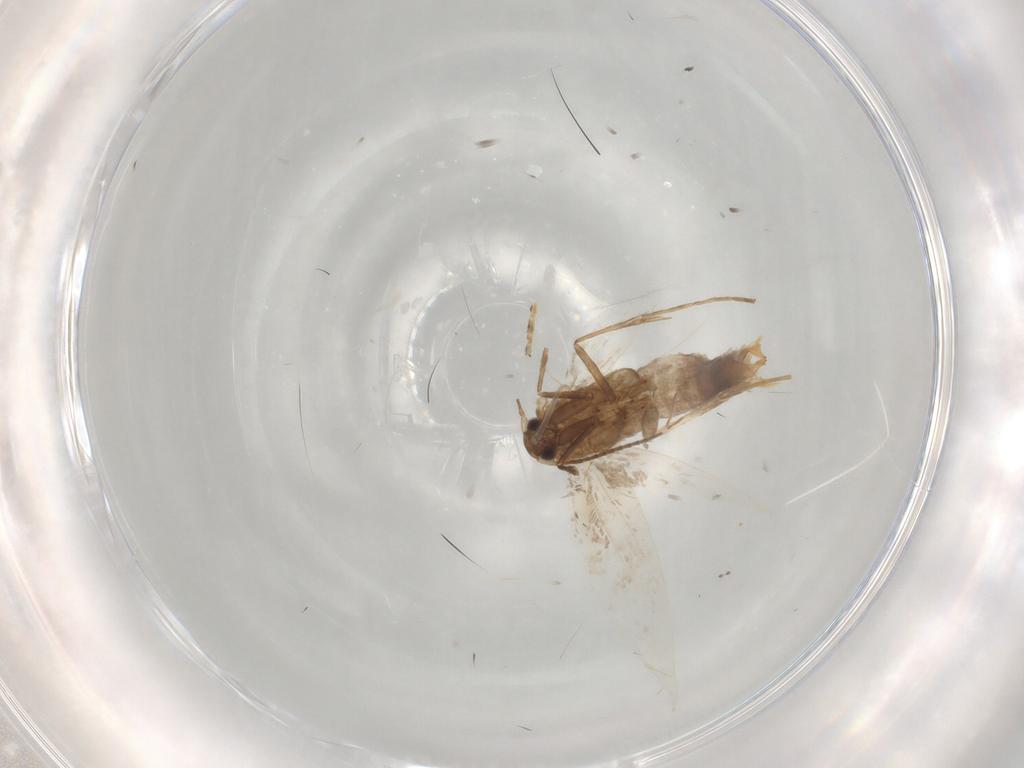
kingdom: Animalia
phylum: Arthropoda
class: Insecta
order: Lepidoptera
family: Gracillariidae
